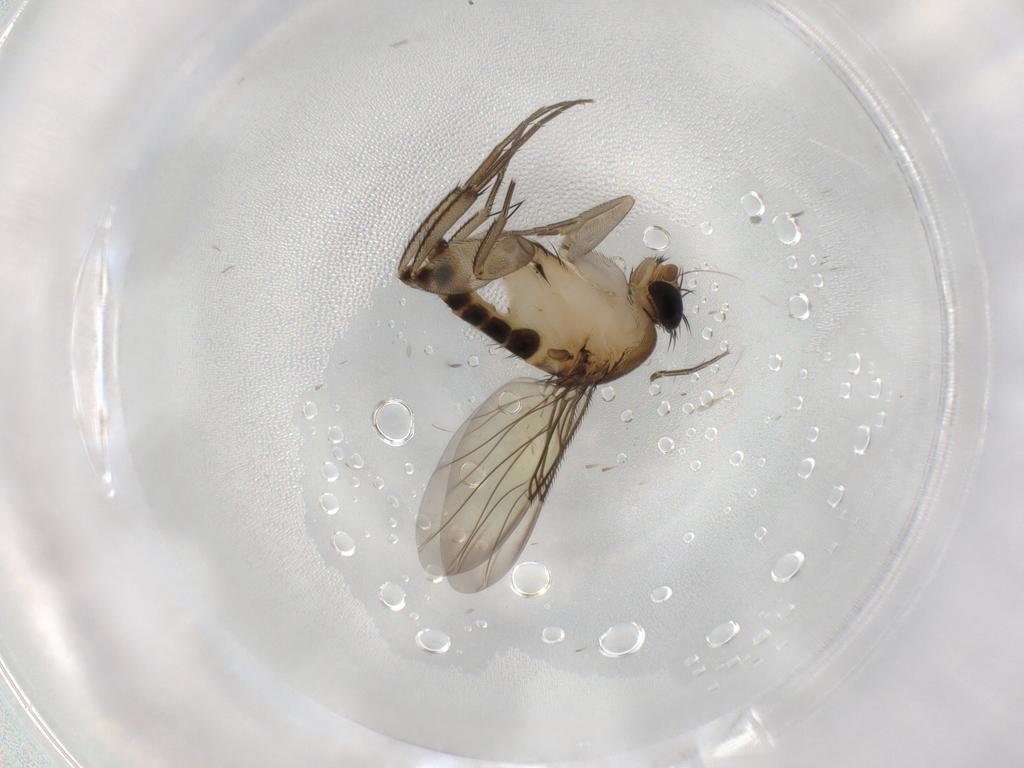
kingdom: Animalia
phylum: Arthropoda
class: Insecta
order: Diptera
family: Phoridae
